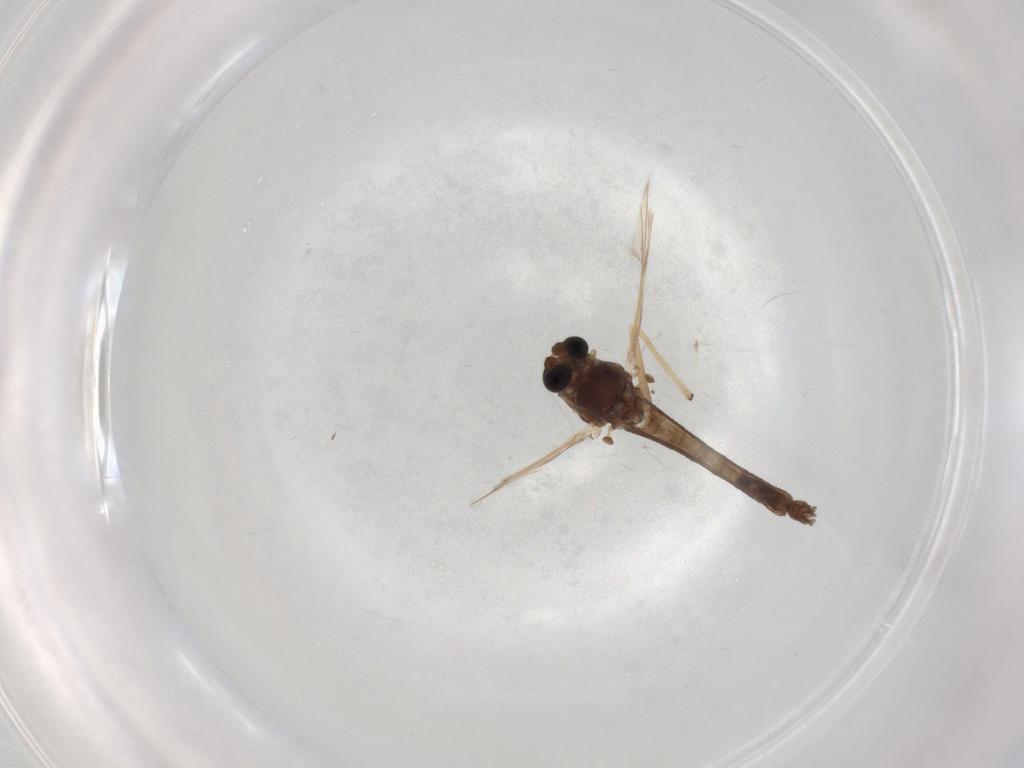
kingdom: Animalia
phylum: Arthropoda
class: Insecta
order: Diptera
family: Chironomidae
